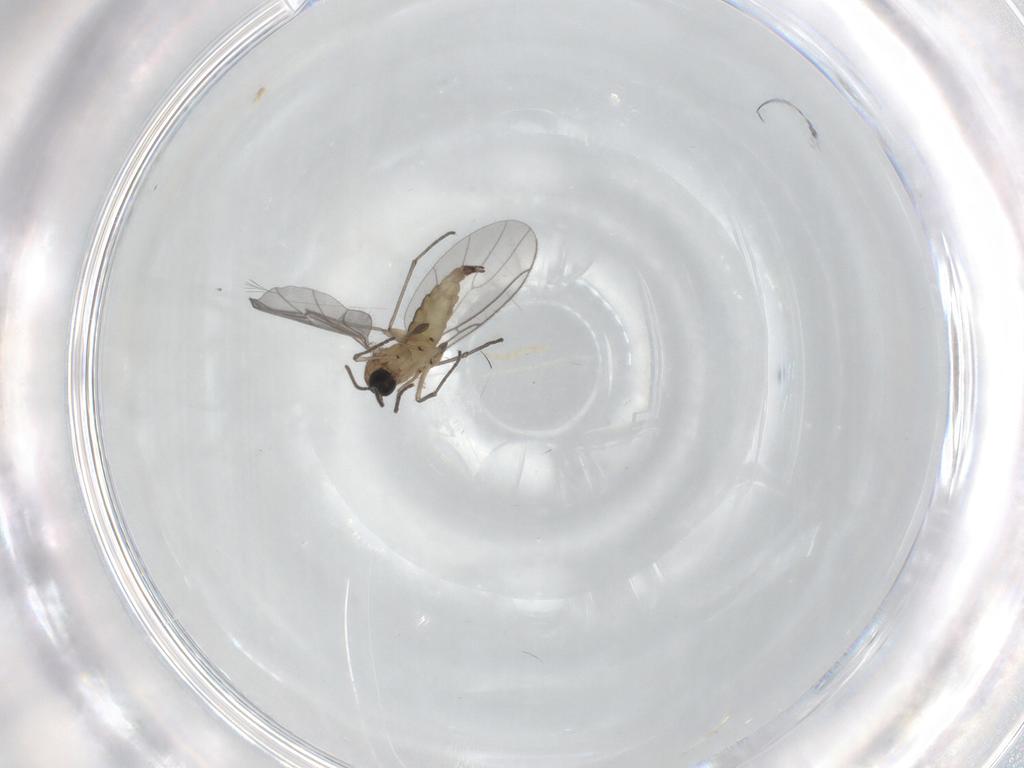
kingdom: Animalia
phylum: Arthropoda
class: Insecta
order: Diptera
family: Sciaridae
